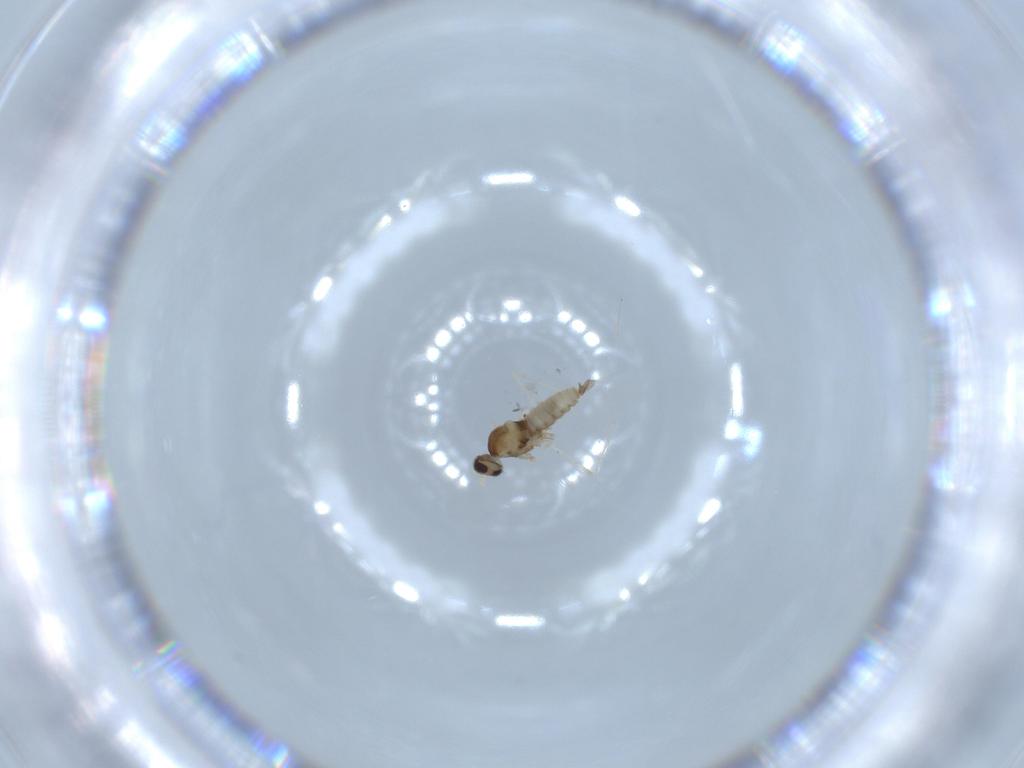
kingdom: Animalia
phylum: Arthropoda
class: Insecta
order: Diptera
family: Cecidomyiidae
